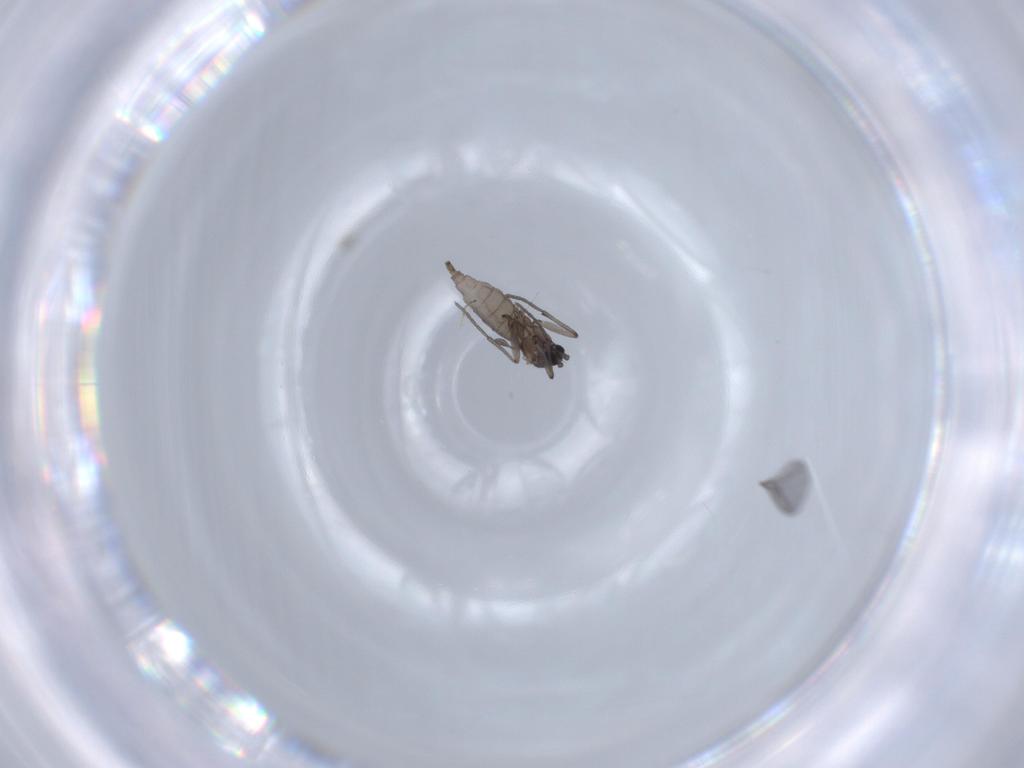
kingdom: Animalia
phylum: Arthropoda
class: Insecta
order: Diptera
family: Sciaridae
